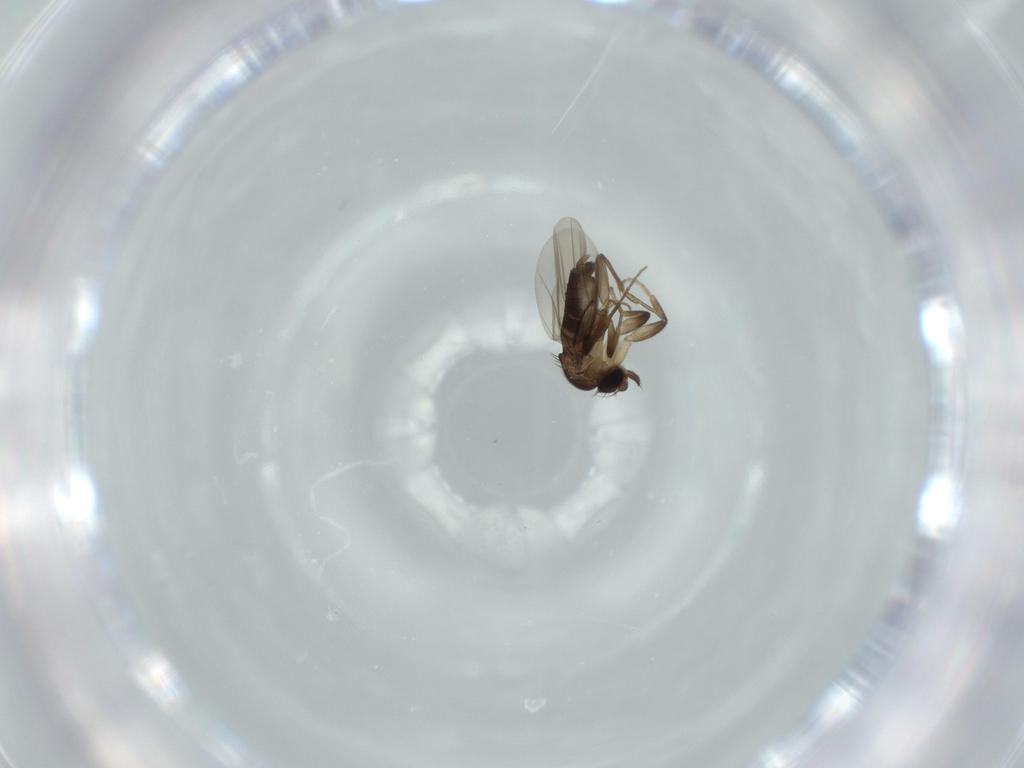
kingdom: Animalia
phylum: Arthropoda
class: Insecta
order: Diptera
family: Phoridae
